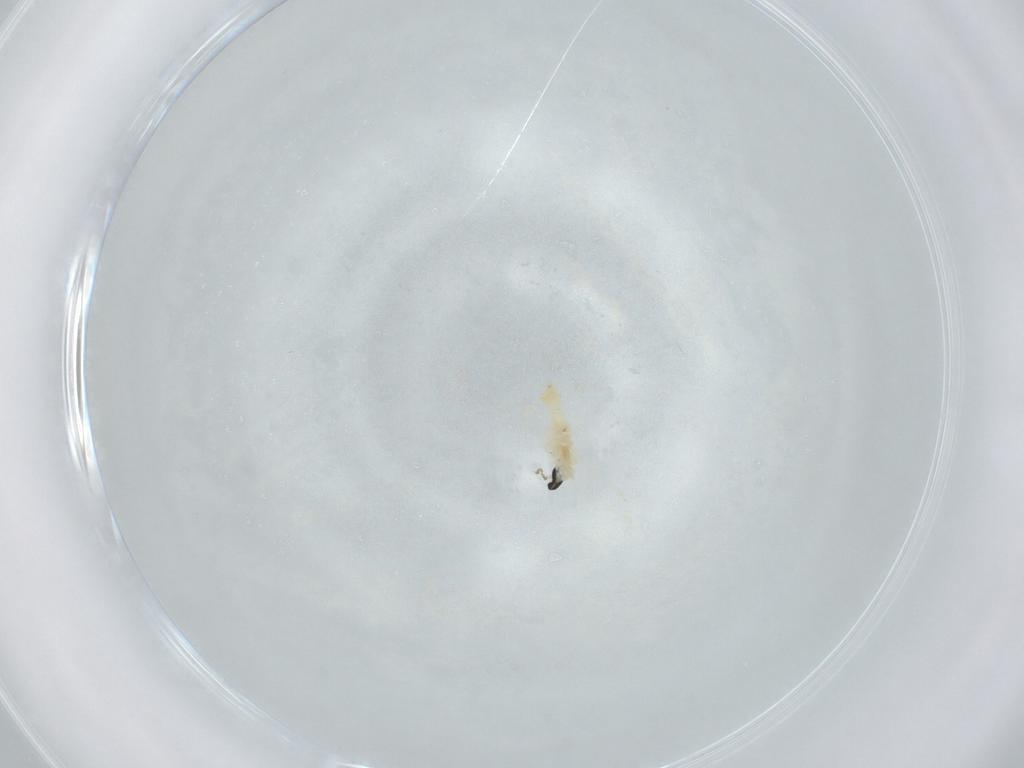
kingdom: Animalia
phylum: Arthropoda
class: Insecta
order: Diptera
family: Cecidomyiidae
